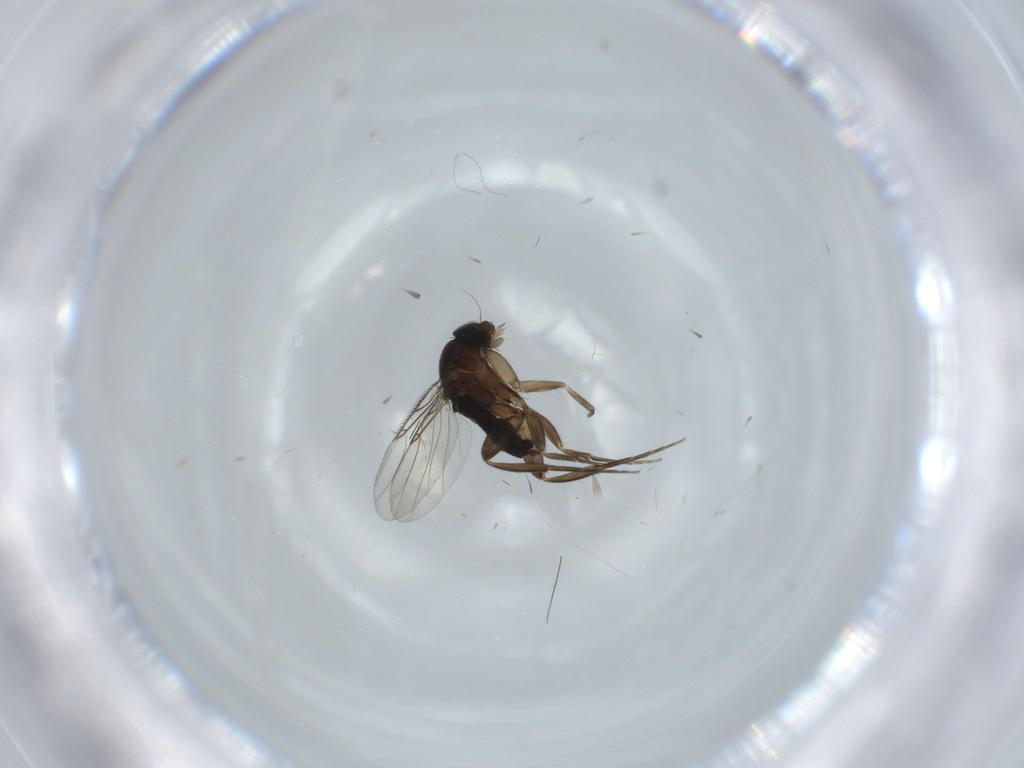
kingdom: Animalia
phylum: Arthropoda
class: Insecta
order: Diptera
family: Phoridae
